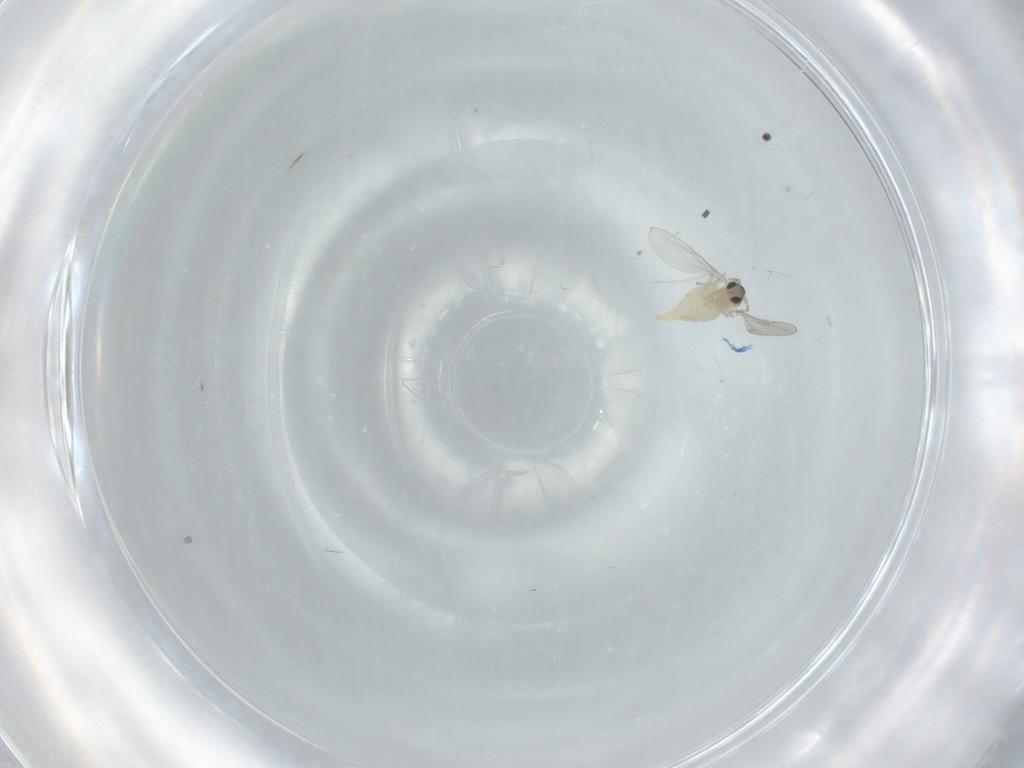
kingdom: Animalia
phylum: Arthropoda
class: Insecta
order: Diptera
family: Cecidomyiidae
